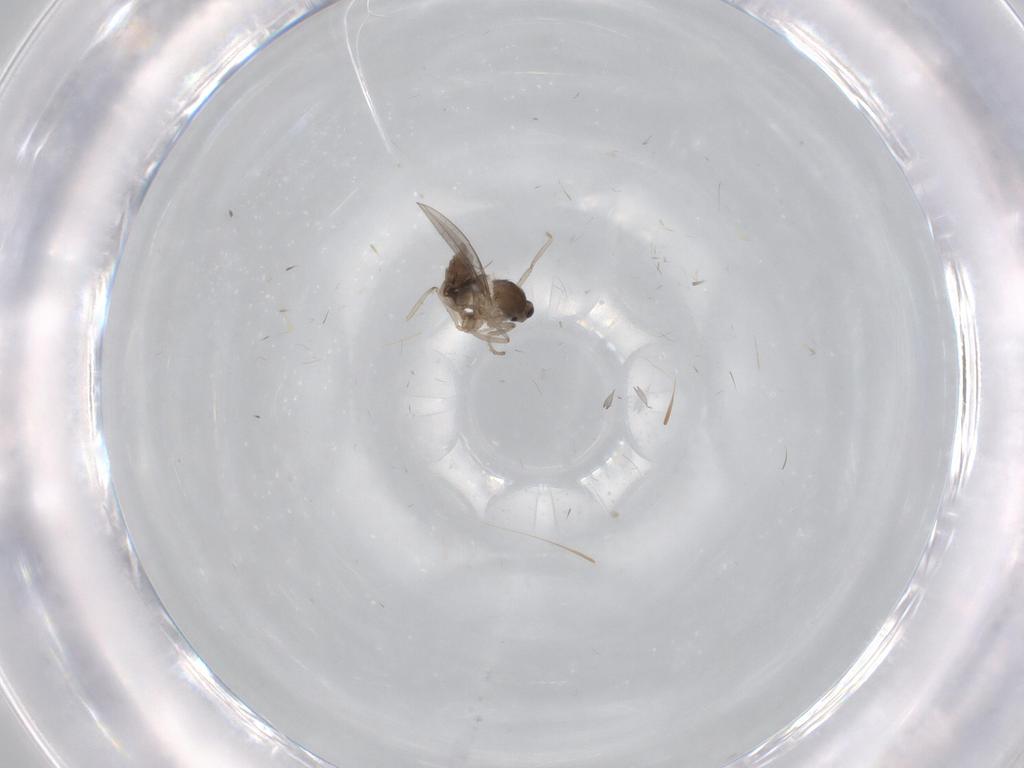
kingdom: Animalia
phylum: Arthropoda
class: Insecta
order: Diptera
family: Cecidomyiidae
